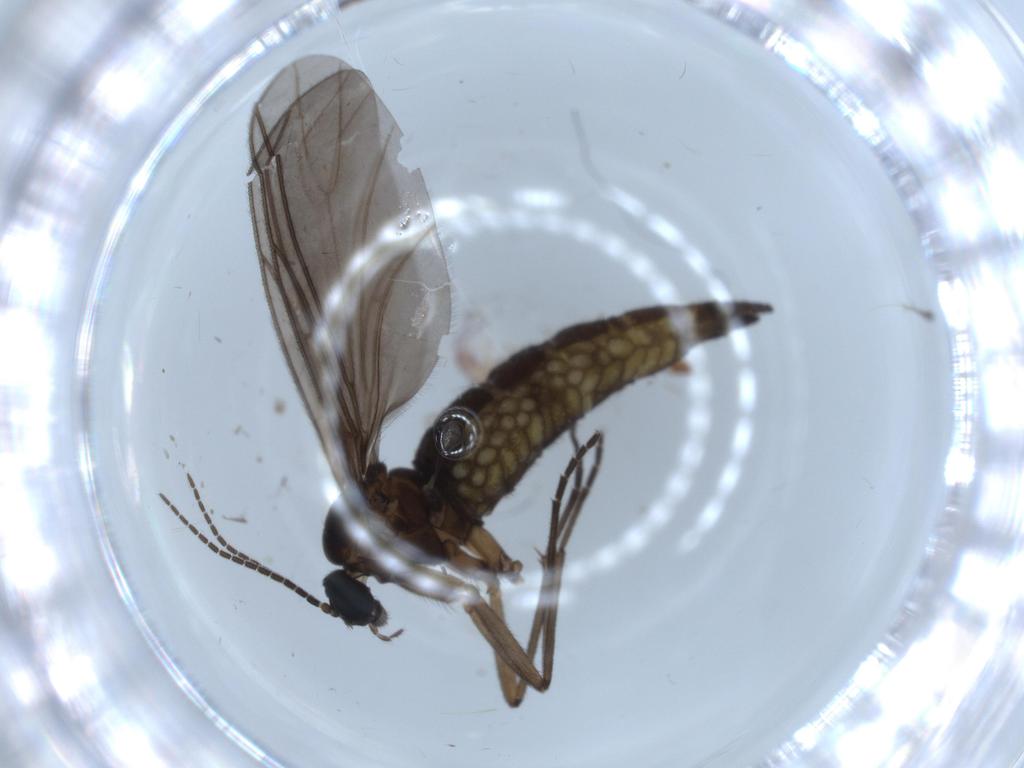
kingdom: Animalia
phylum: Arthropoda
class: Insecta
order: Diptera
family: Sciaridae
